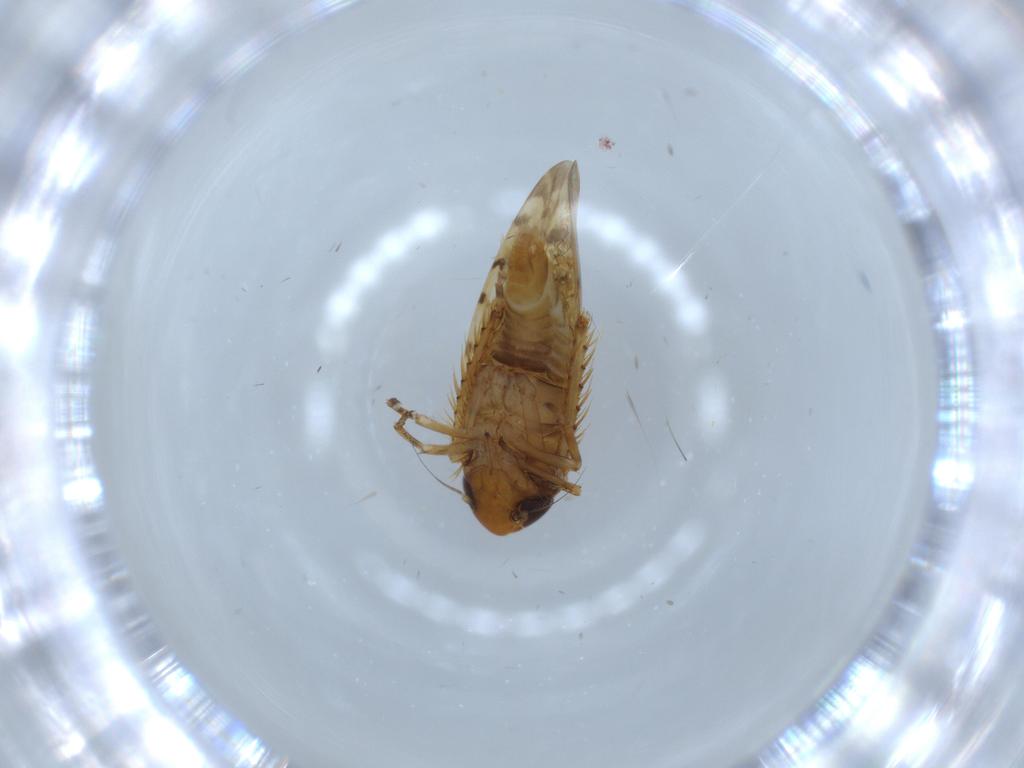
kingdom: Animalia
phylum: Arthropoda
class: Insecta
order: Hemiptera
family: Cicadellidae
